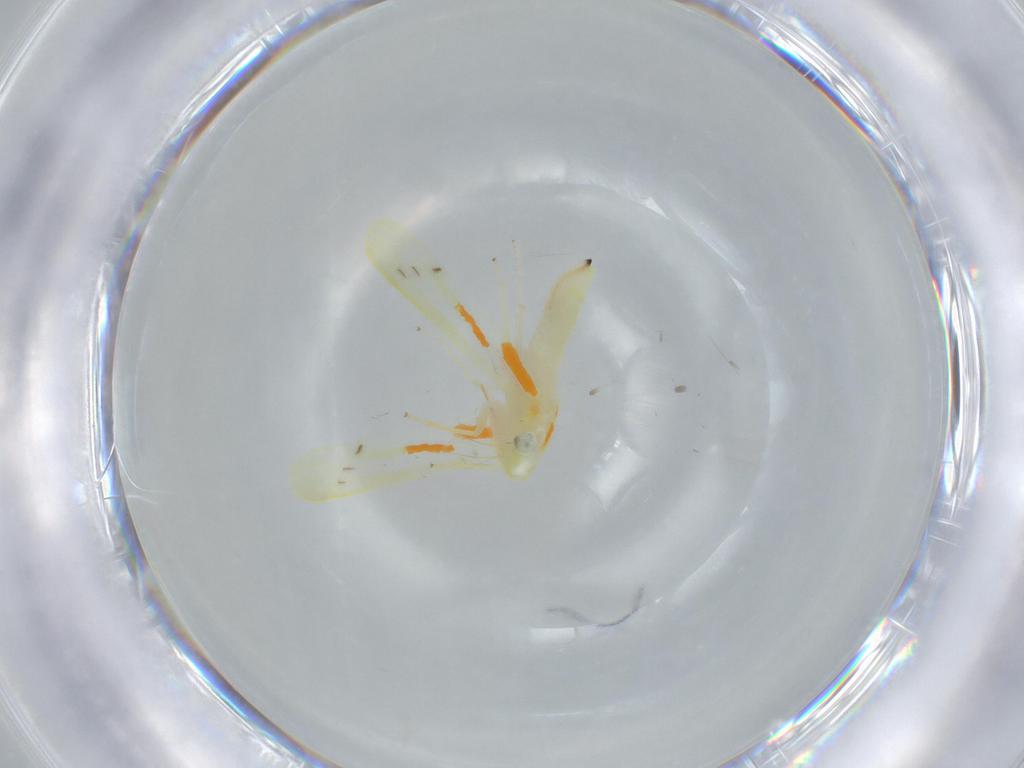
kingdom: Animalia
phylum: Arthropoda
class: Insecta
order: Hemiptera
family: Cicadellidae
